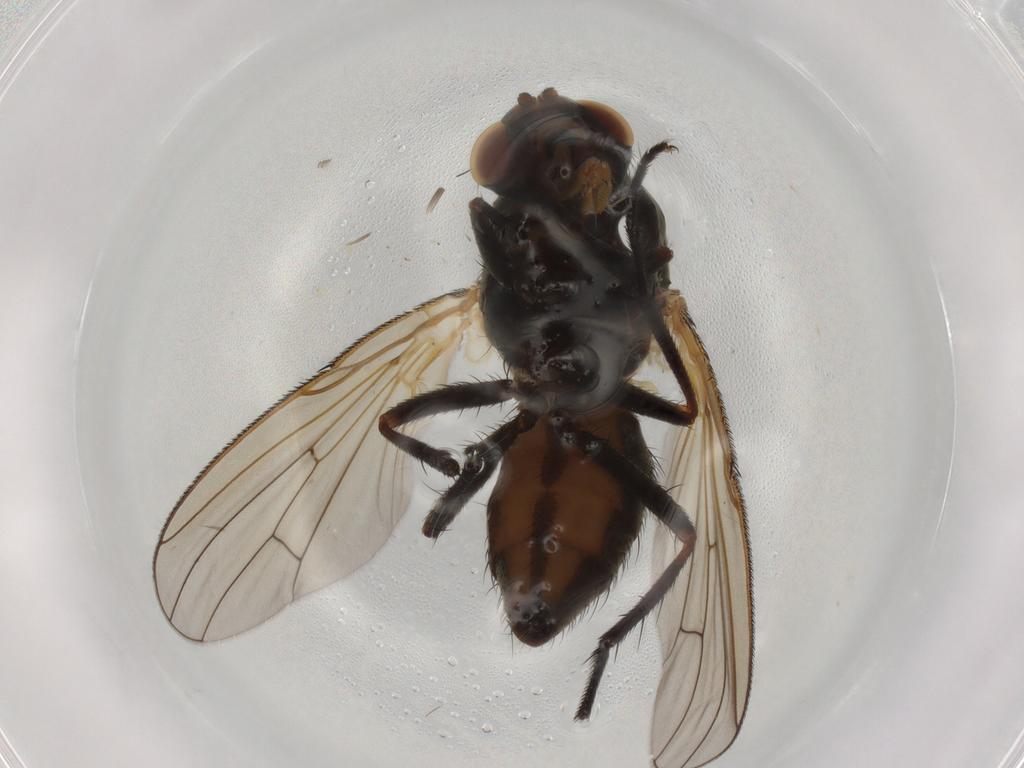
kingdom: Animalia
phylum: Arthropoda
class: Insecta
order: Diptera
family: Anthomyiidae
